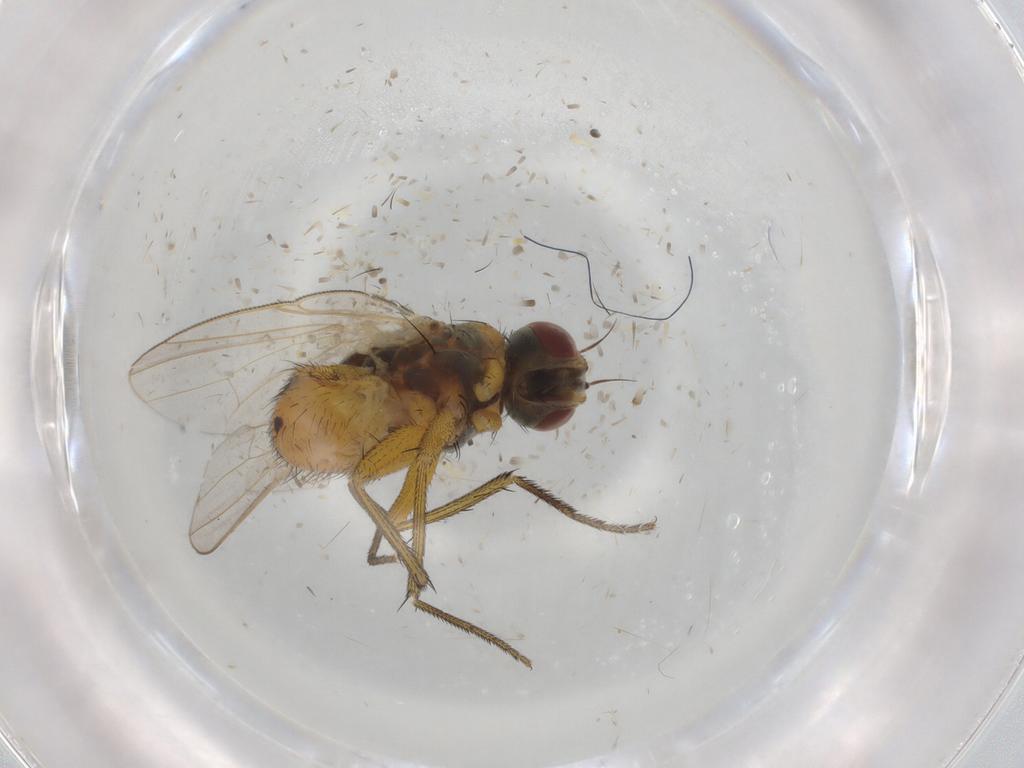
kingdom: Animalia
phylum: Arthropoda
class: Insecta
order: Diptera
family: Muscidae
